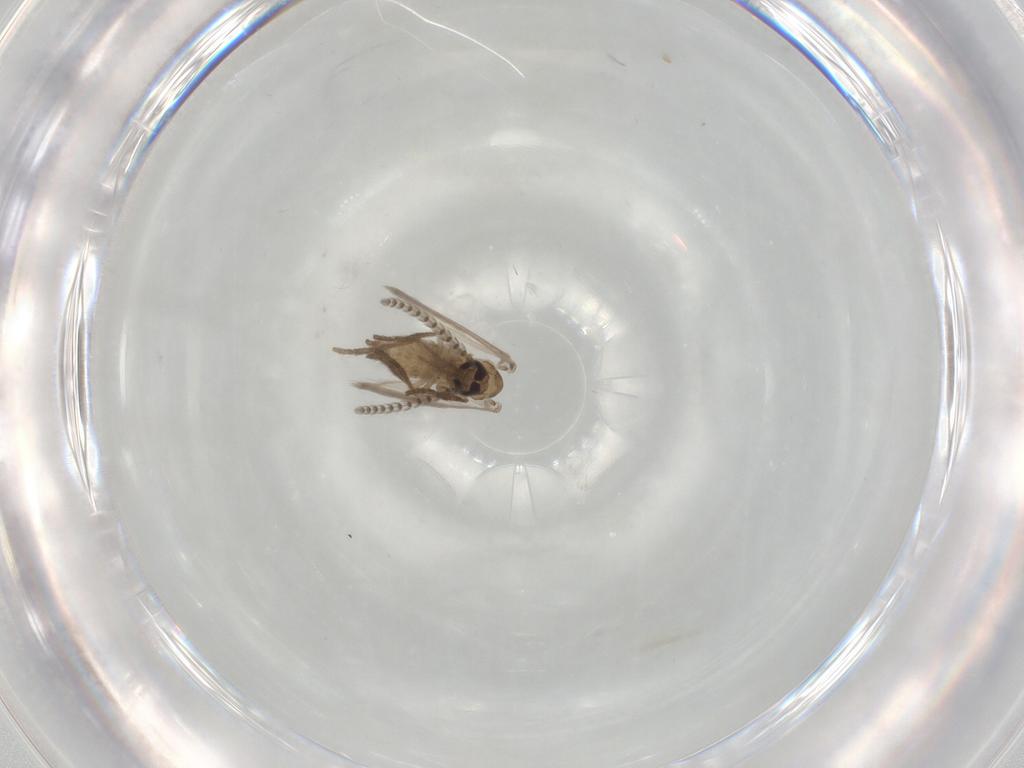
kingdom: Animalia
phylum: Arthropoda
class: Insecta
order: Diptera
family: Psychodidae
